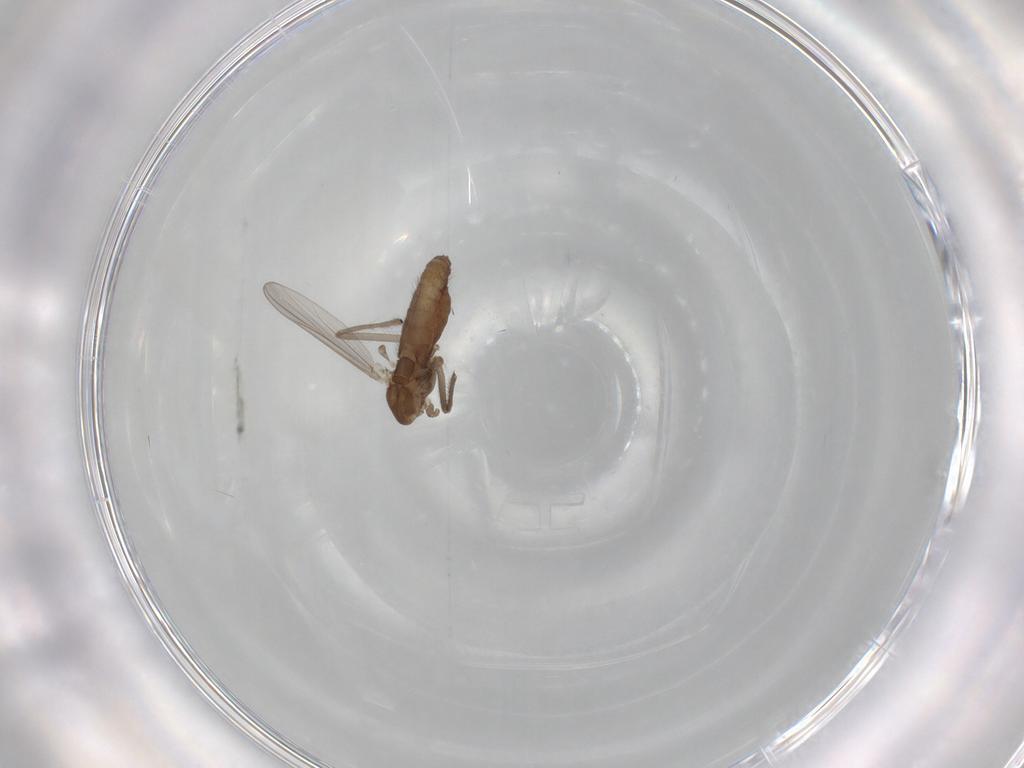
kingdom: Animalia
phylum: Arthropoda
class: Insecta
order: Diptera
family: Chironomidae
